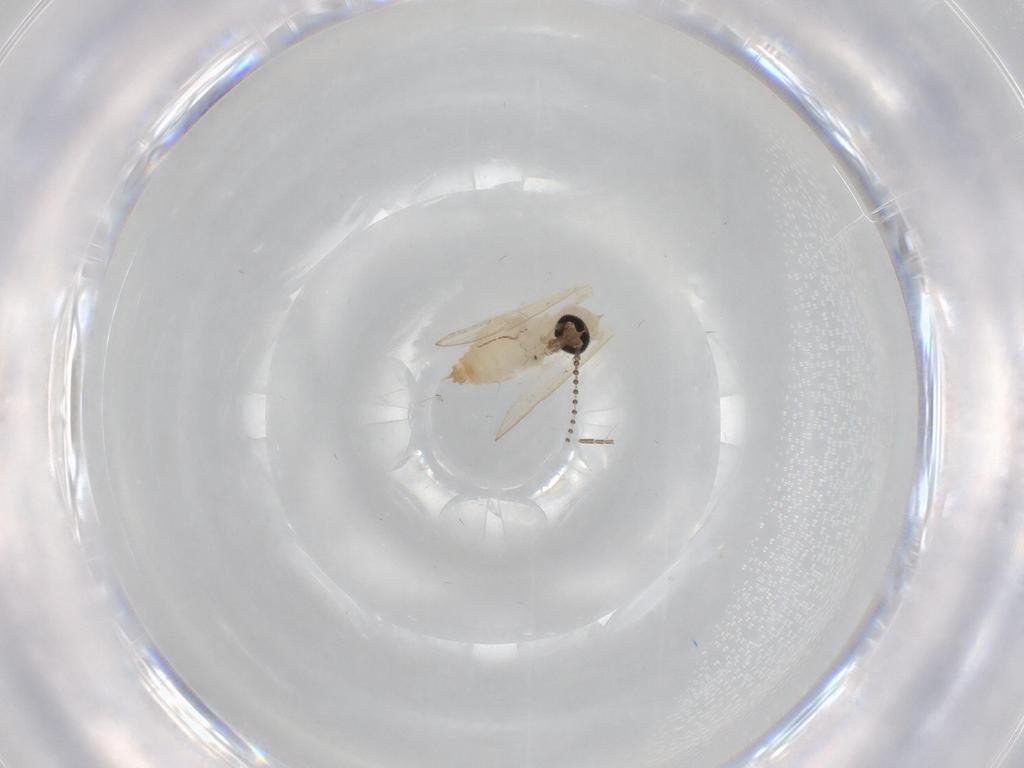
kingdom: Animalia
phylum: Arthropoda
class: Insecta
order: Diptera
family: Psychodidae
